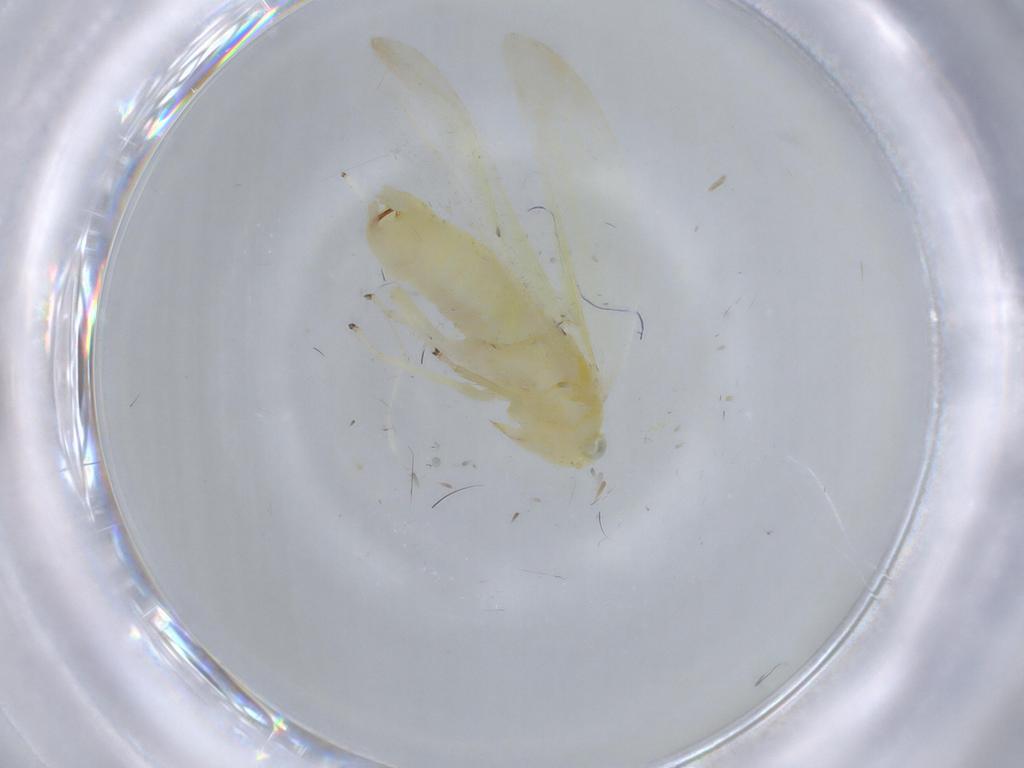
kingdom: Animalia
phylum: Arthropoda
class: Insecta
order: Hemiptera
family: Cicadellidae
